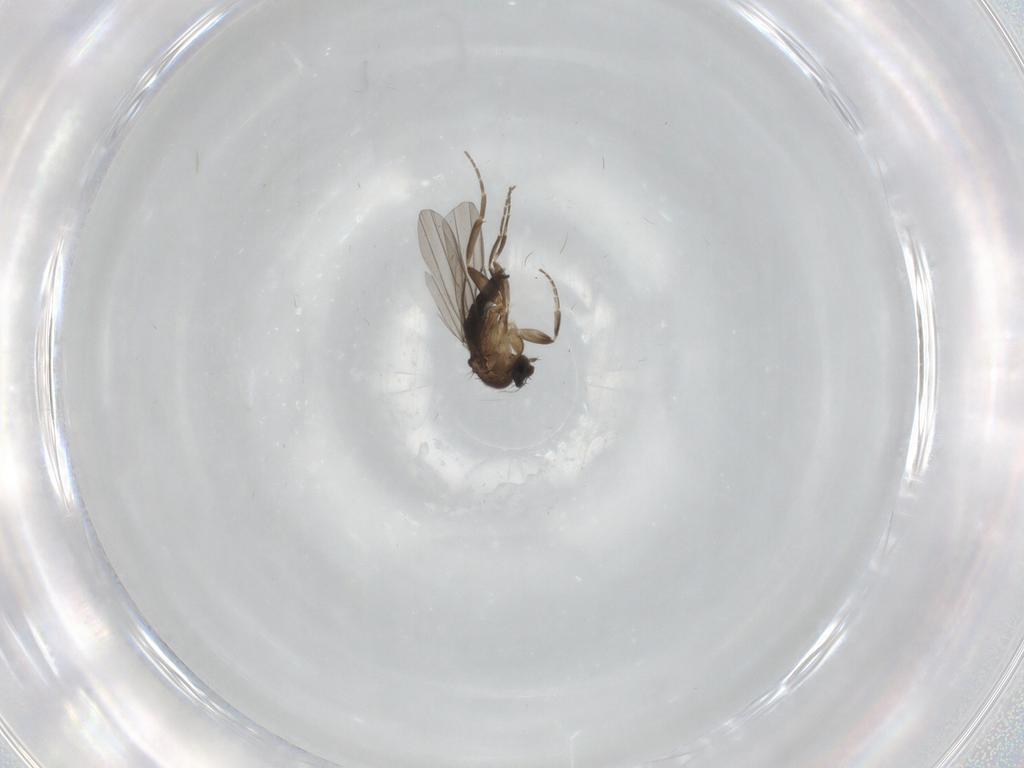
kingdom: Animalia
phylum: Arthropoda
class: Insecta
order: Diptera
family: Phoridae
